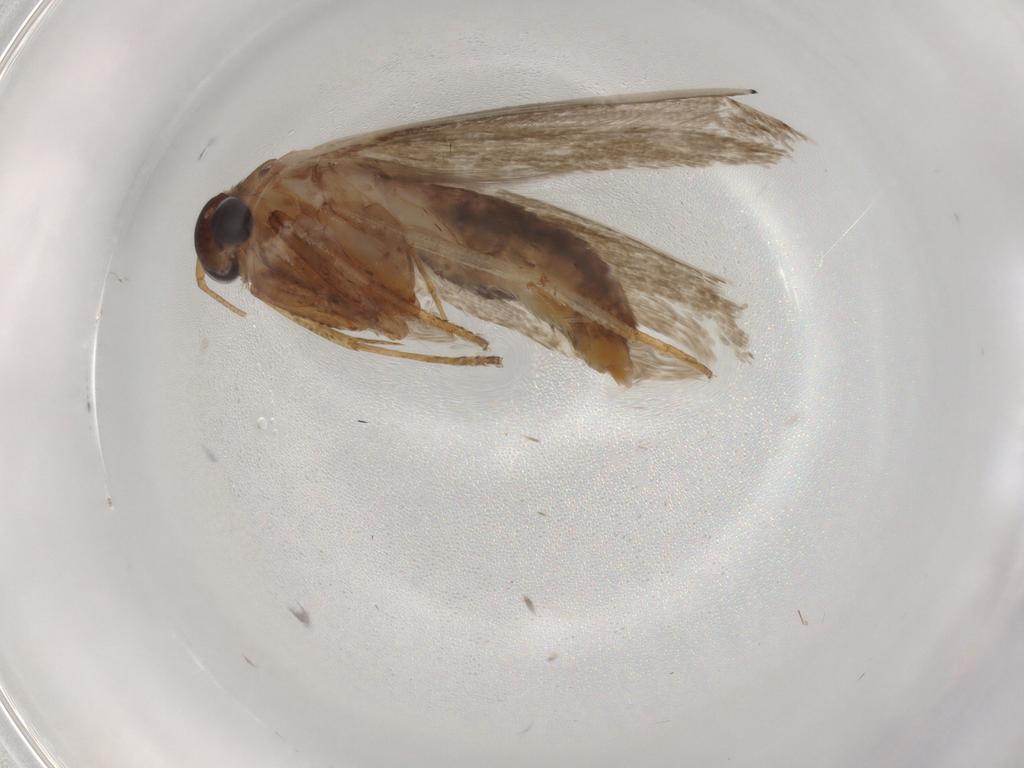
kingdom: Animalia
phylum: Arthropoda
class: Insecta
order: Lepidoptera
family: Blastobasidae
